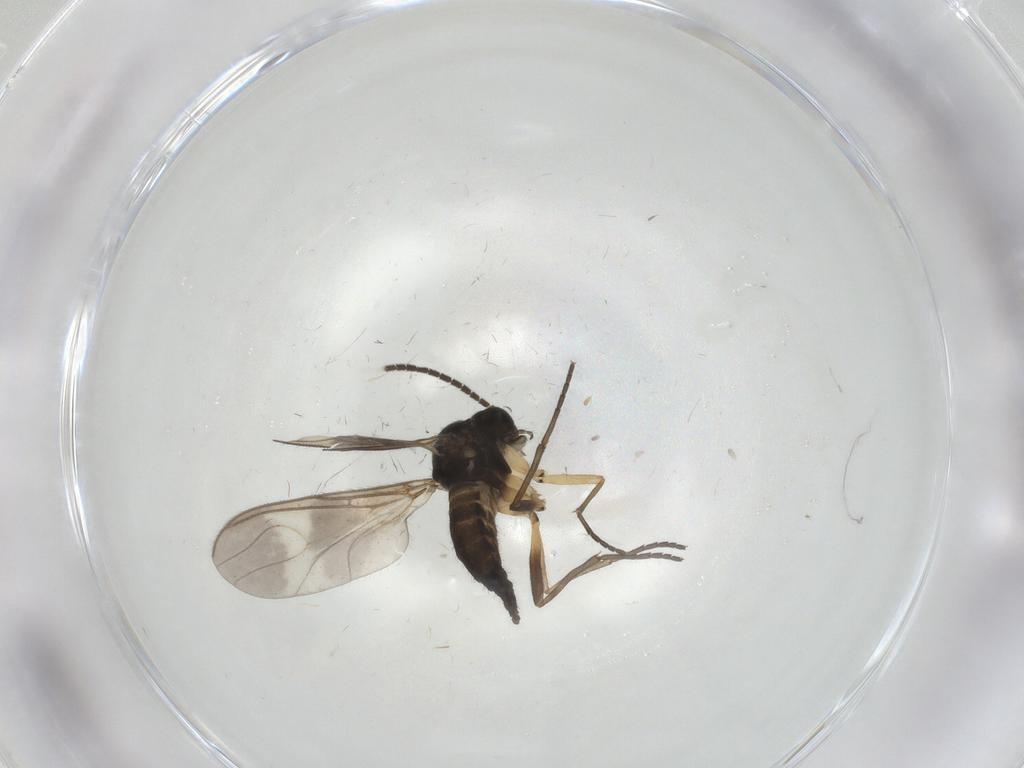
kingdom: Animalia
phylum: Arthropoda
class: Insecta
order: Diptera
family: Sciaridae
